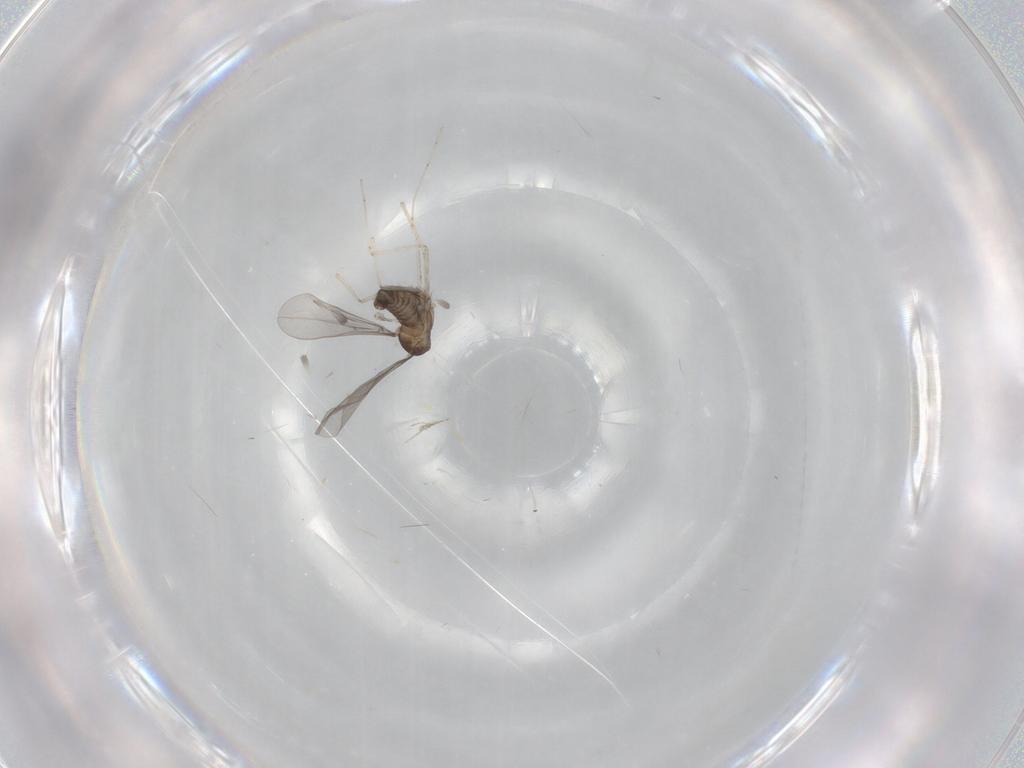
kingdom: Animalia
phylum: Arthropoda
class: Insecta
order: Diptera
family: Cecidomyiidae
